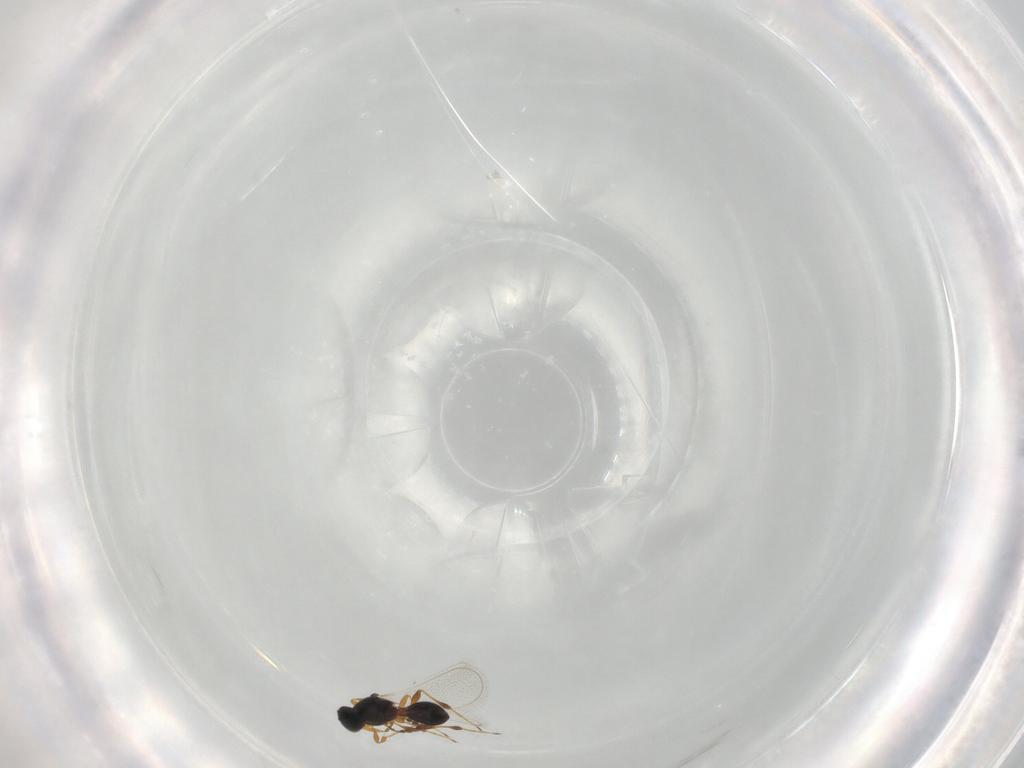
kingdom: Animalia
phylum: Arthropoda
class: Insecta
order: Hymenoptera
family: Platygastridae
